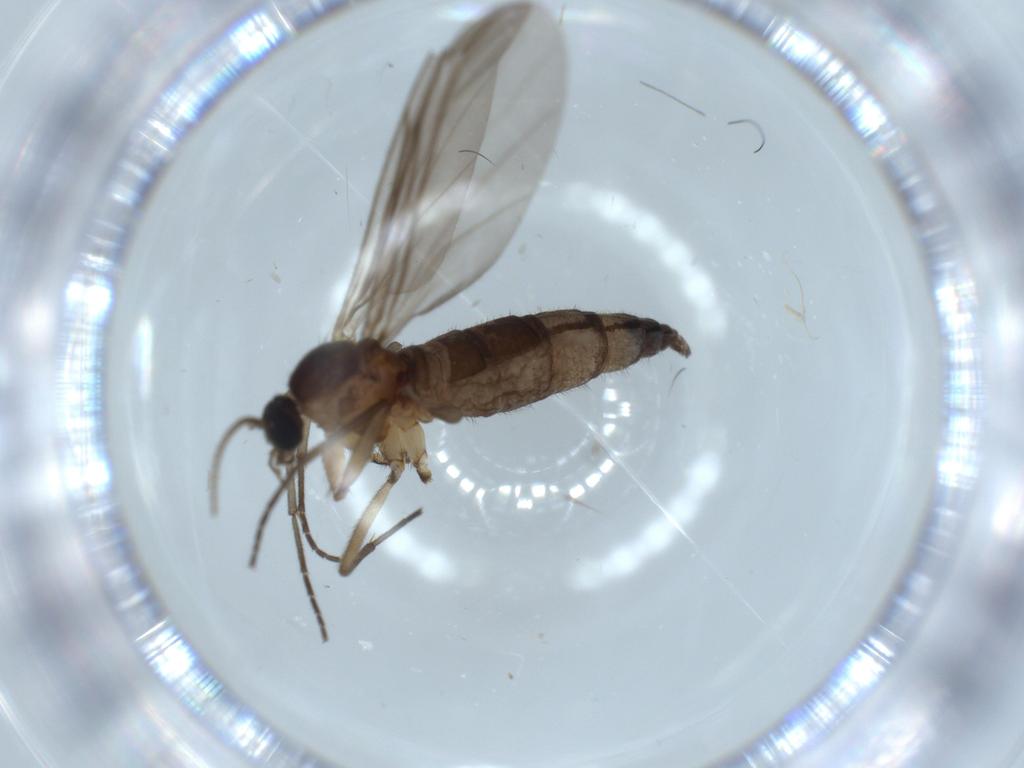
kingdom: Animalia
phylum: Arthropoda
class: Insecta
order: Diptera
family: Sciaridae
